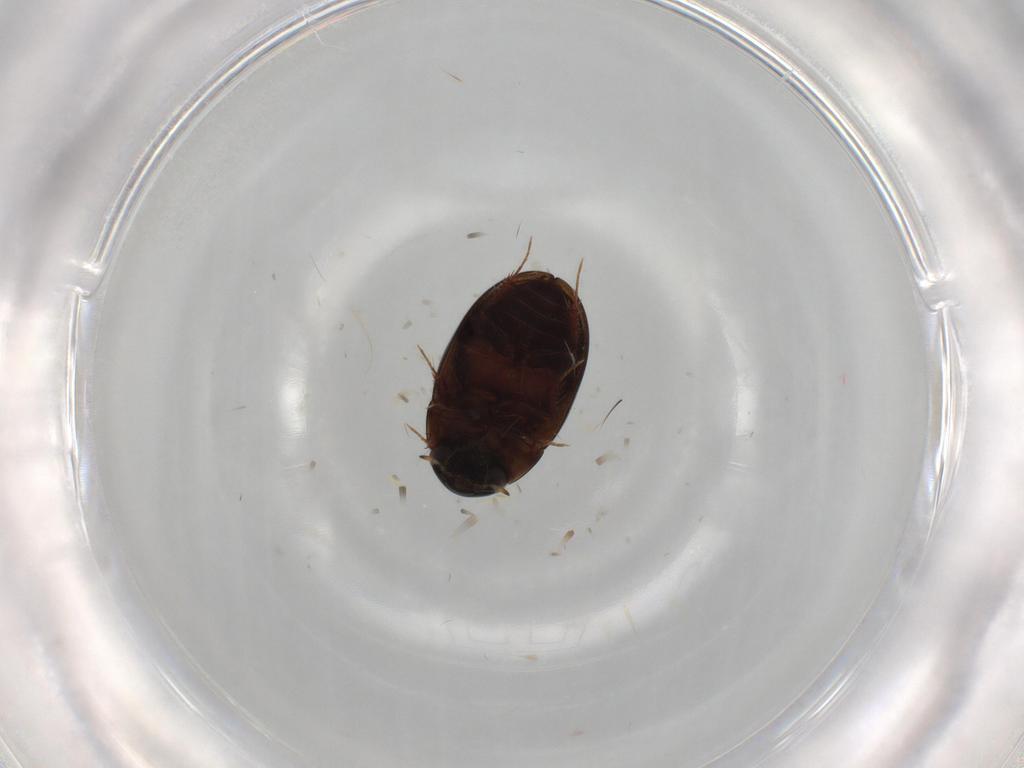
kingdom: Animalia
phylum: Arthropoda
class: Insecta
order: Coleoptera
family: Hydrophilidae
